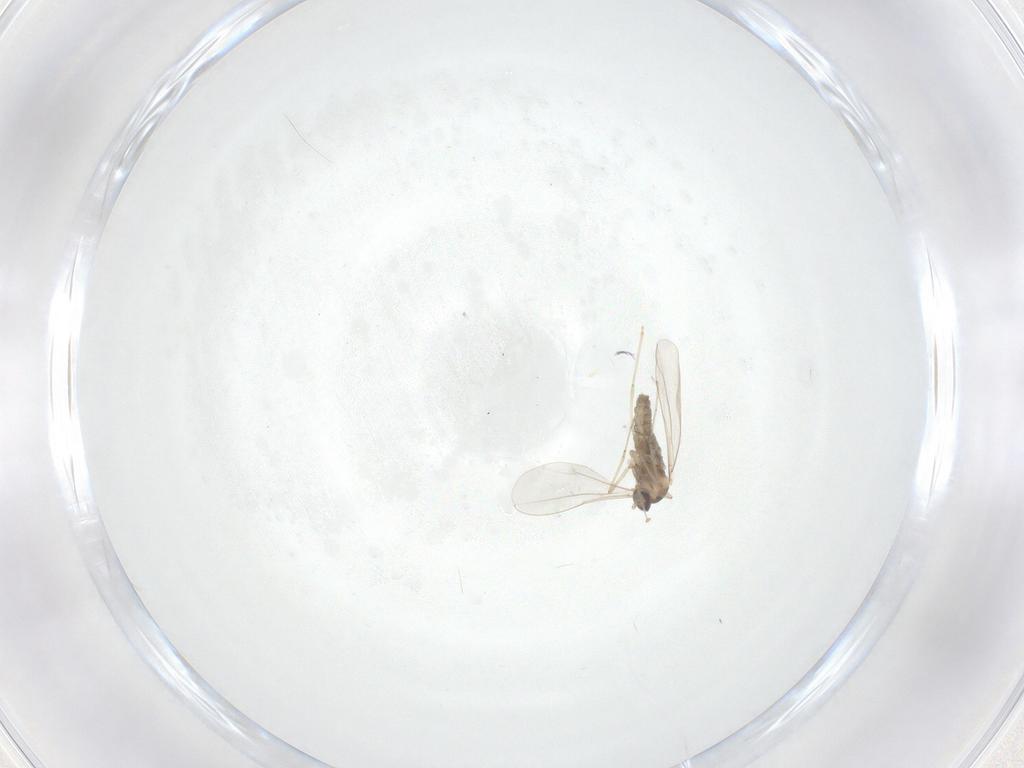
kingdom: Animalia
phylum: Arthropoda
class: Insecta
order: Diptera
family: Cecidomyiidae
